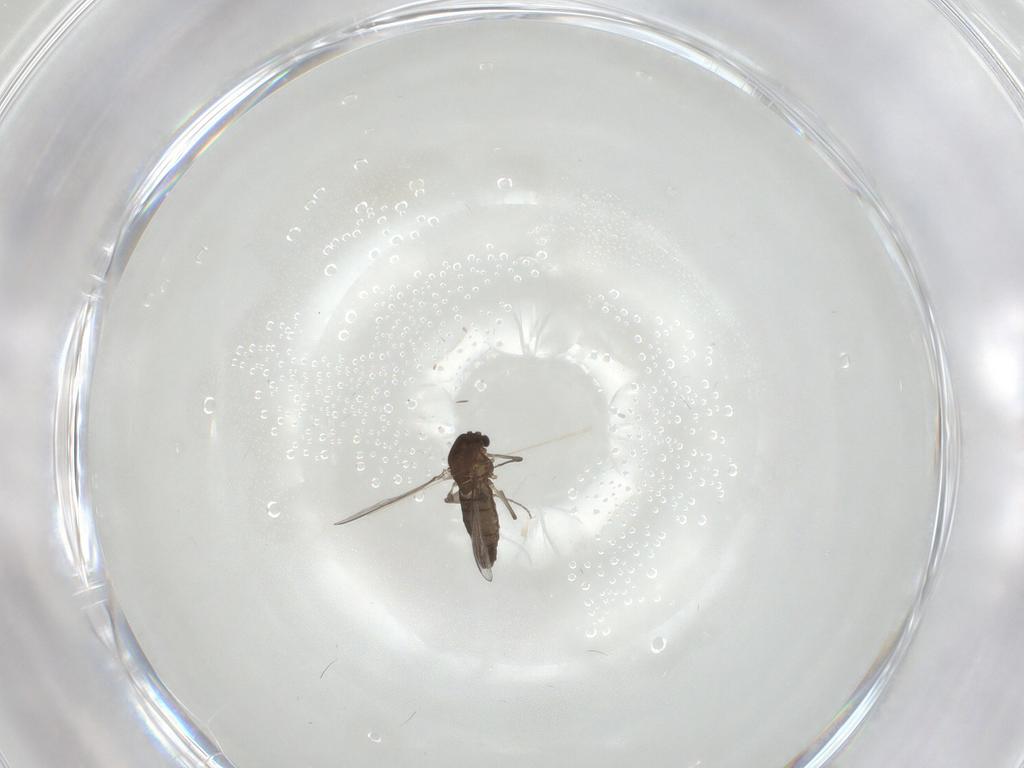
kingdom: Animalia
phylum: Arthropoda
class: Insecta
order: Diptera
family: Chironomidae
